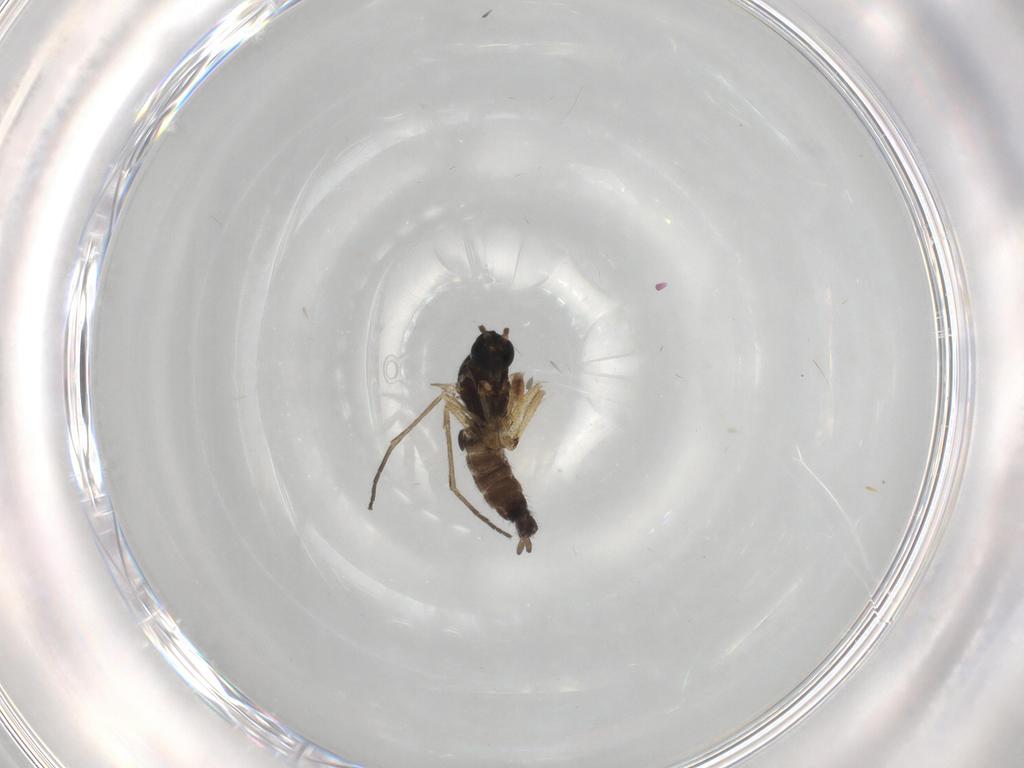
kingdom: Animalia
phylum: Arthropoda
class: Insecta
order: Diptera
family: Sciaridae
